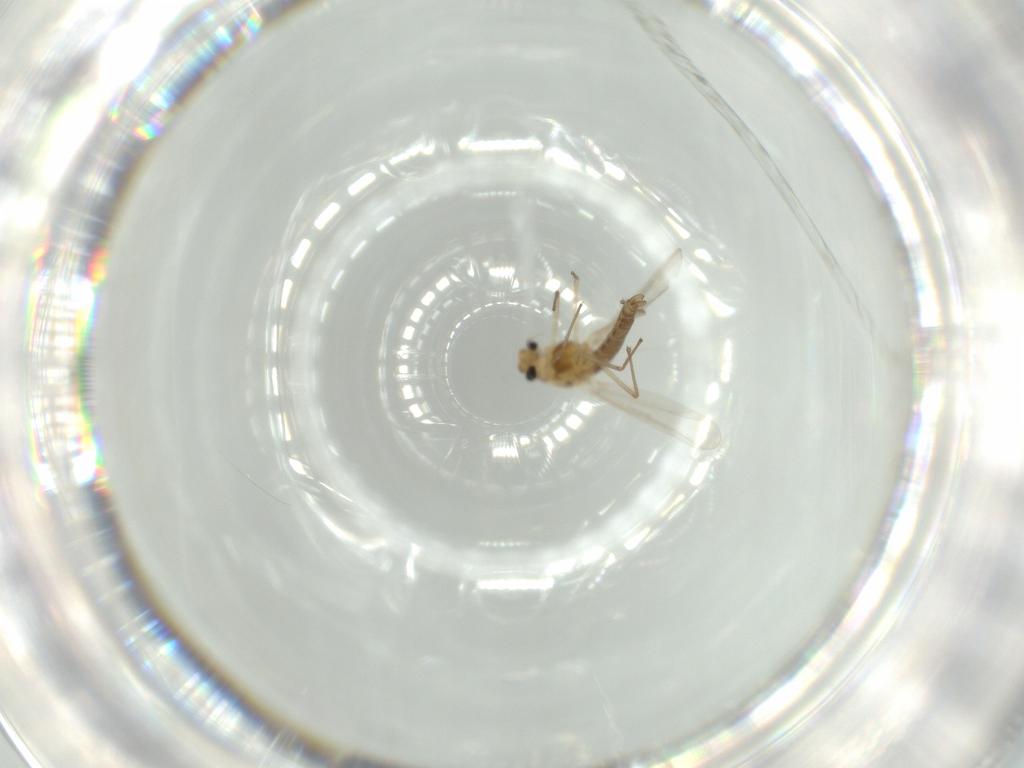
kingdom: Animalia
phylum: Arthropoda
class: Insecta
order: Diptera
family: Chironomidae
